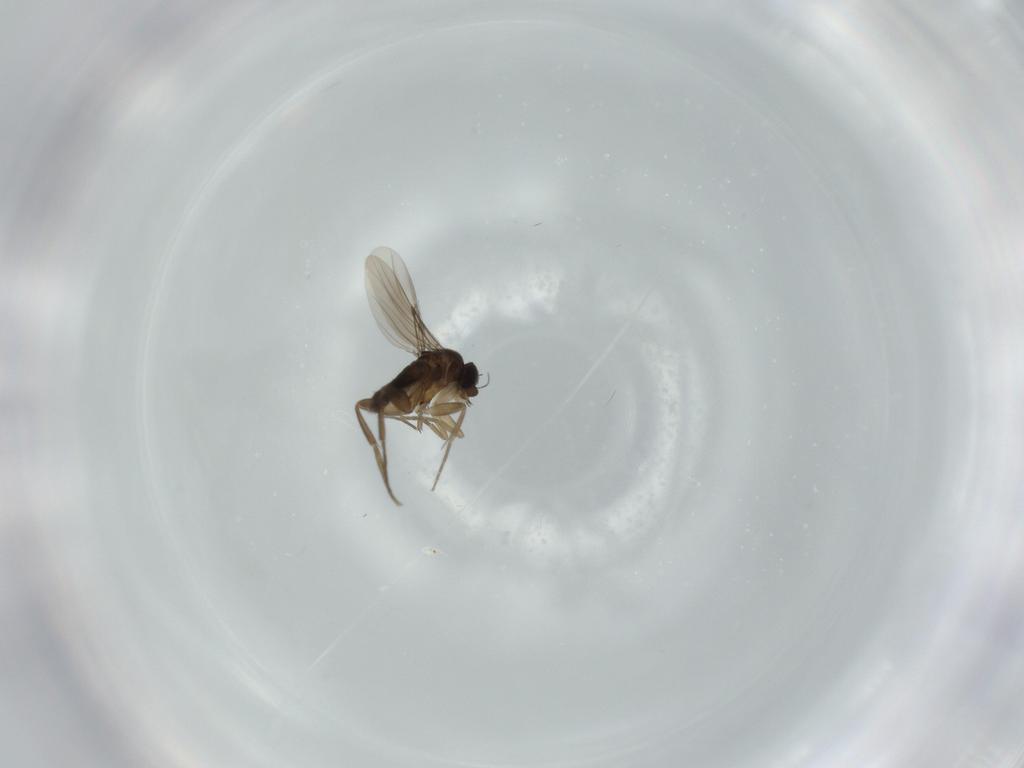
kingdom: Animalia
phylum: Arthropoda
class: Insecta
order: Diptera
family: Phoridae
